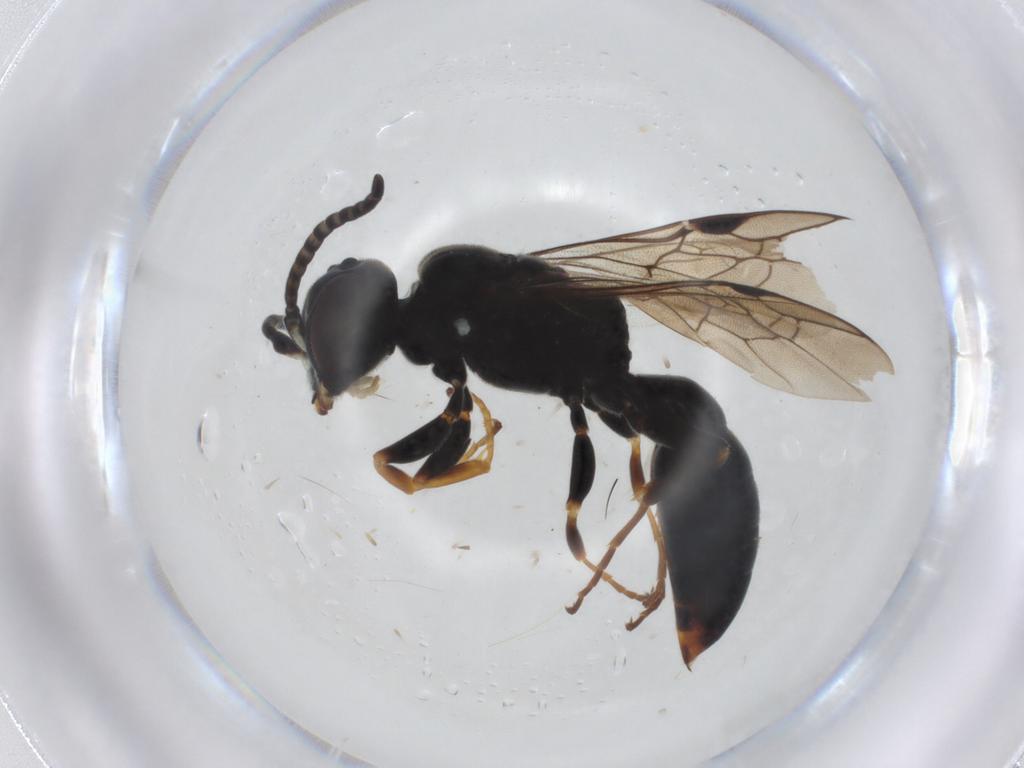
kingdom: Animalia
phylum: Arthropoda
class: Insecta
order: Hymenoptera
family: Pemphredonidae
